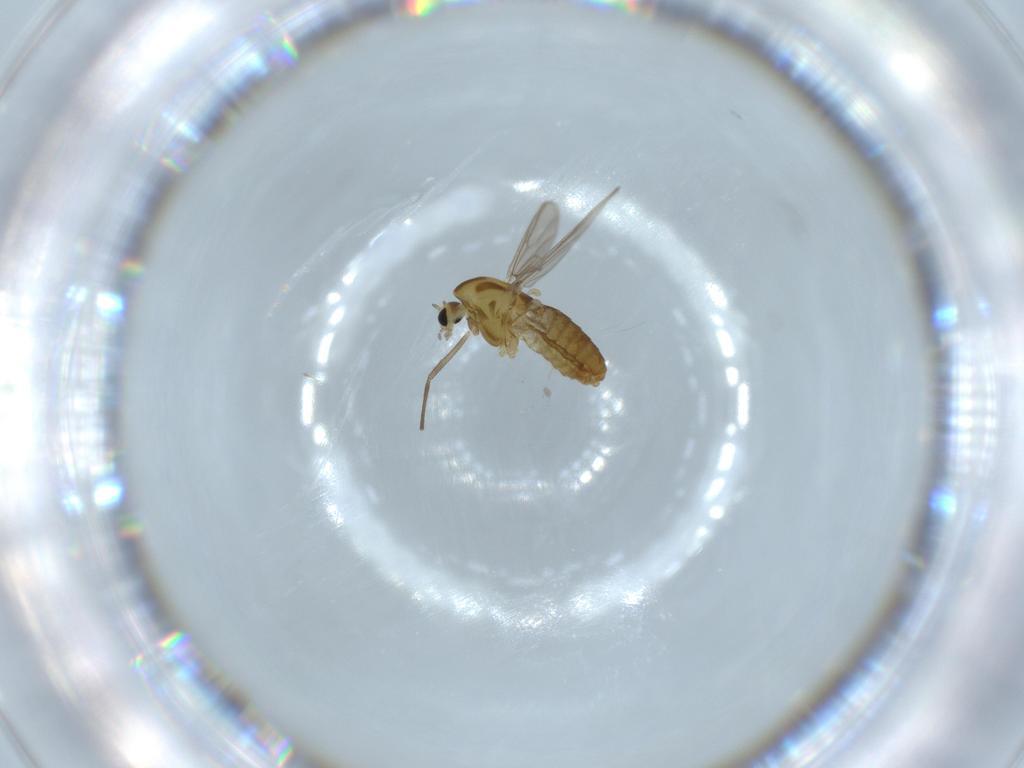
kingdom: Animalia
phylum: Arthropoda
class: Insecta
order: Diptera
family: Chironomidae
